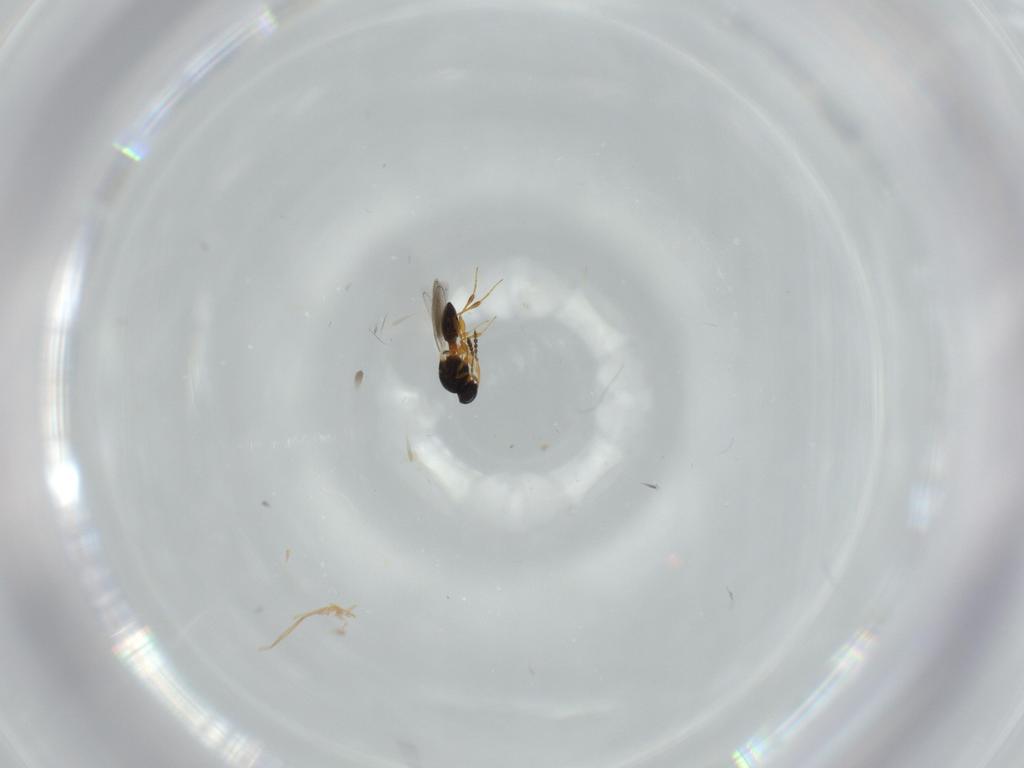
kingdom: Animalia
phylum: Arthropoda
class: Insecta
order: Hymenoptera
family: Platygastridae
